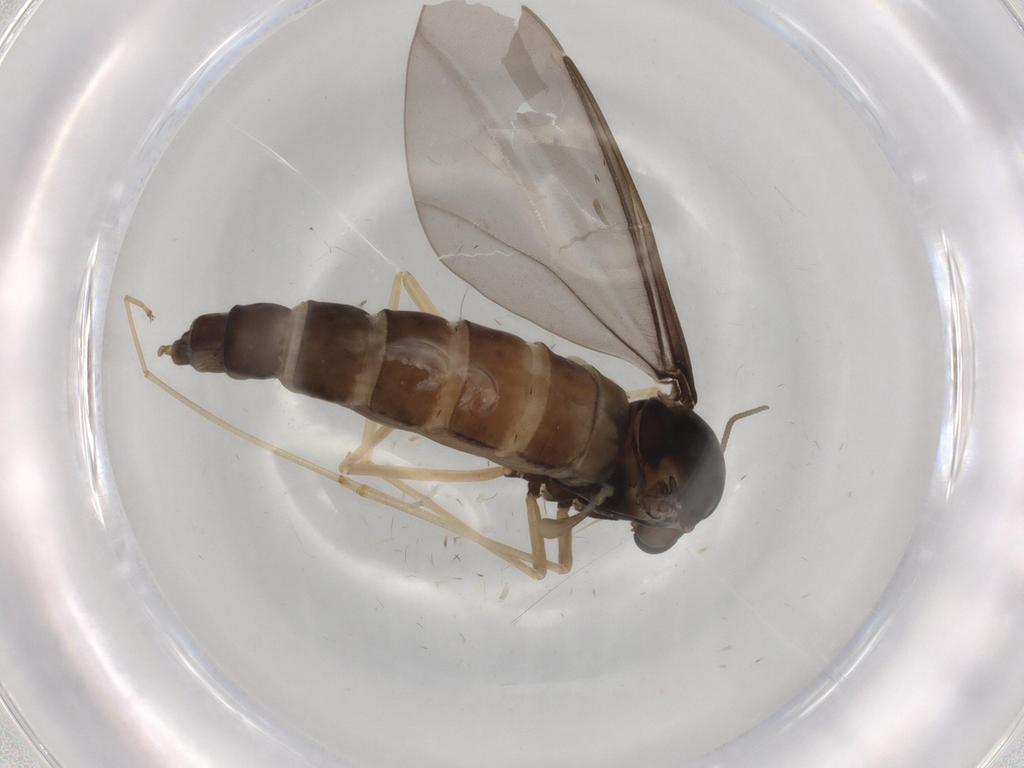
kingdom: Animalia
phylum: Arthropoda
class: Insecta
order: Diptera
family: Cecidomyiidae
